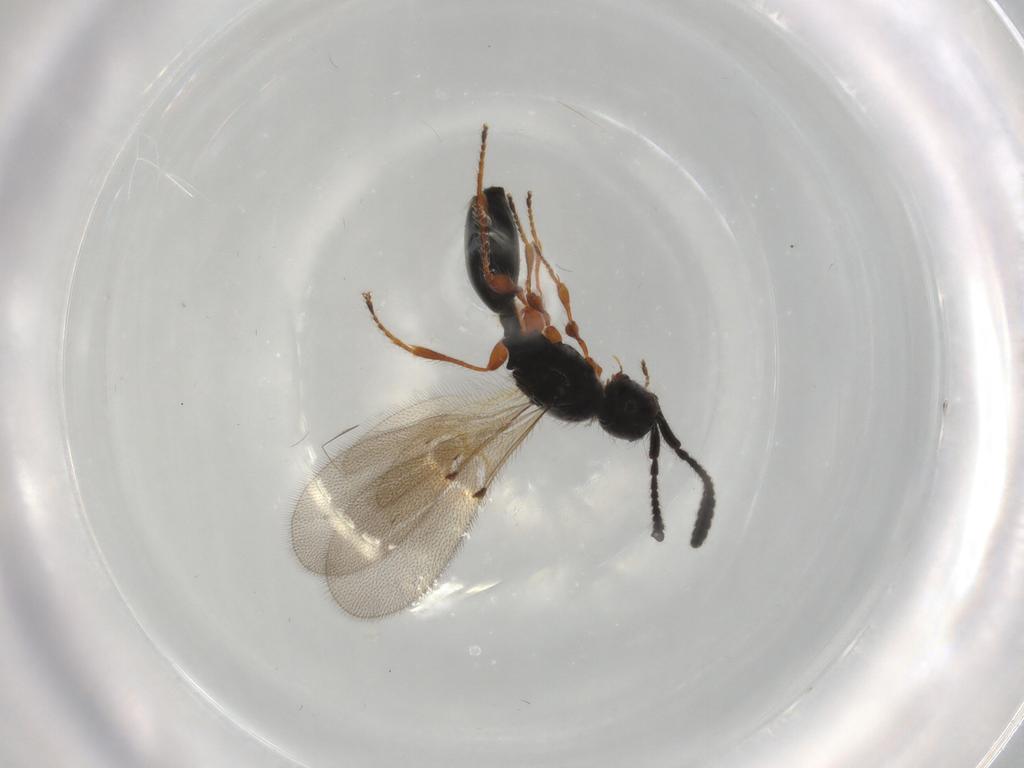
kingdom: Animalia
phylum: Arthropoda
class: Insecta
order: Hymenoptera
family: Diapriidae
